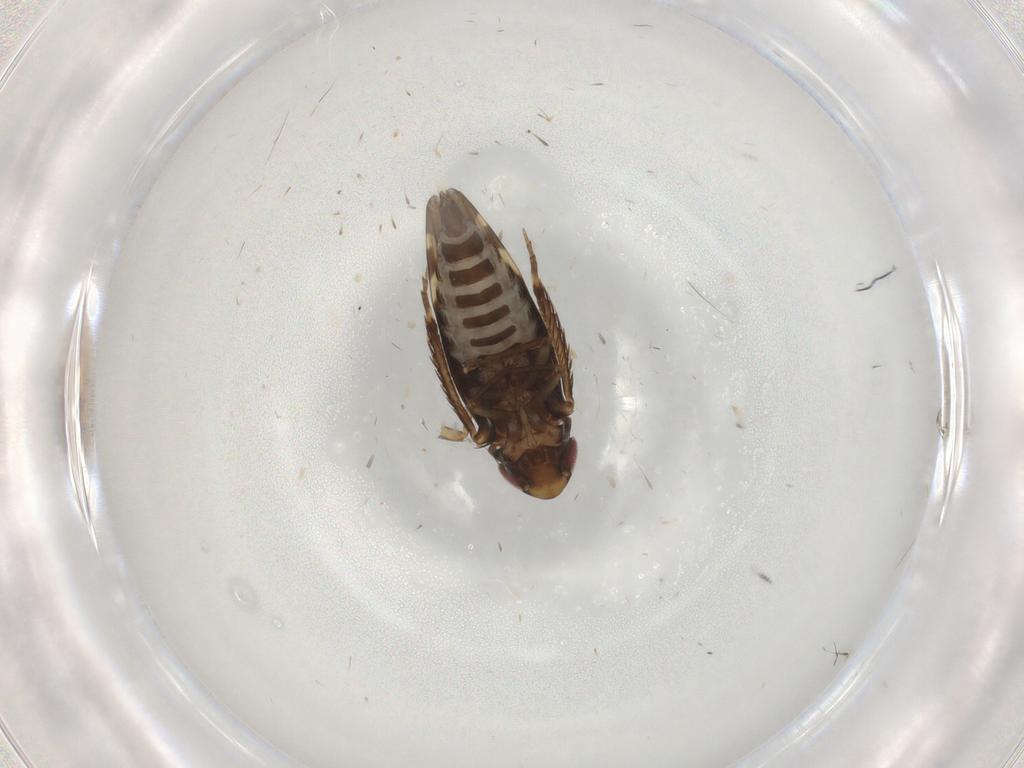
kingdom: Animalia
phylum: Arthropoda
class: Insecta
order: Hemiptera
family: Cicadellidae
